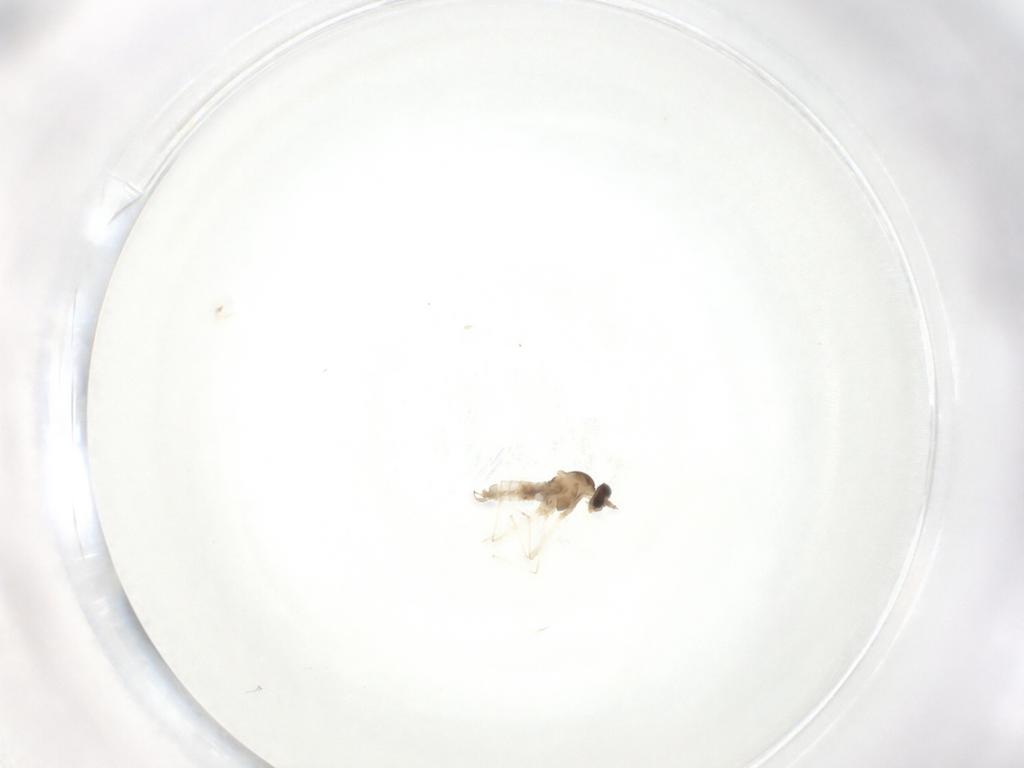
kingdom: Animalia
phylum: Arthropoda
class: Insecta
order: Diptera
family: Cecidomyiidae
